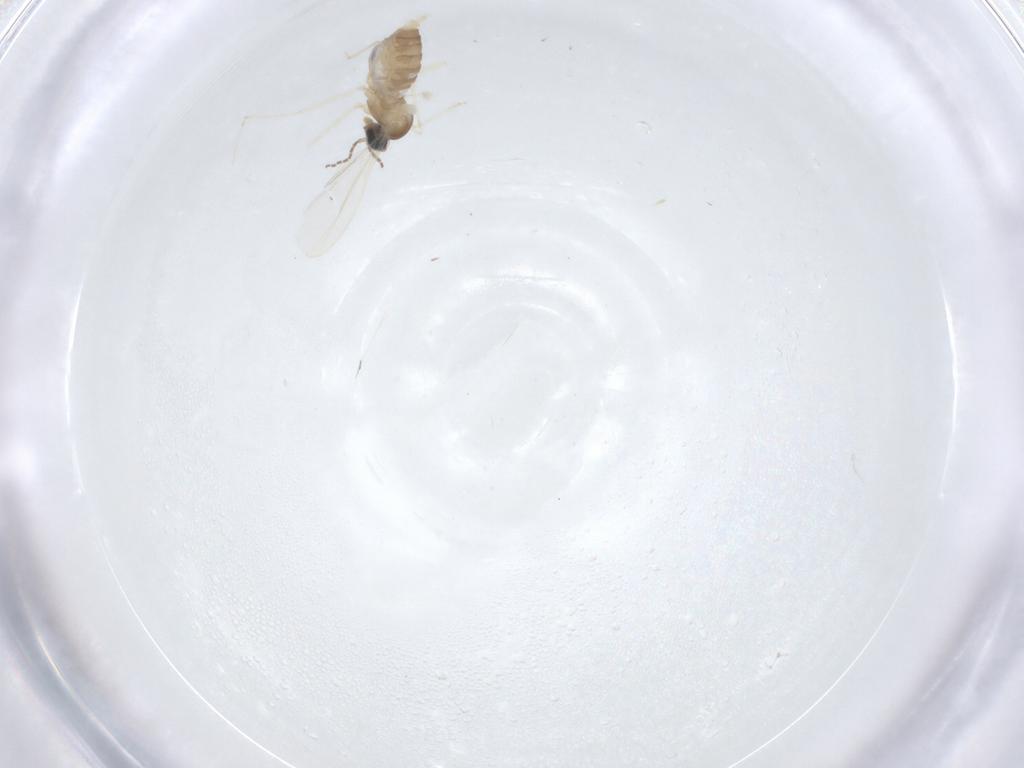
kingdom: Animalia
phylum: Arthropoda
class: Insecta
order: Diptera
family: Cecidomyiidae
